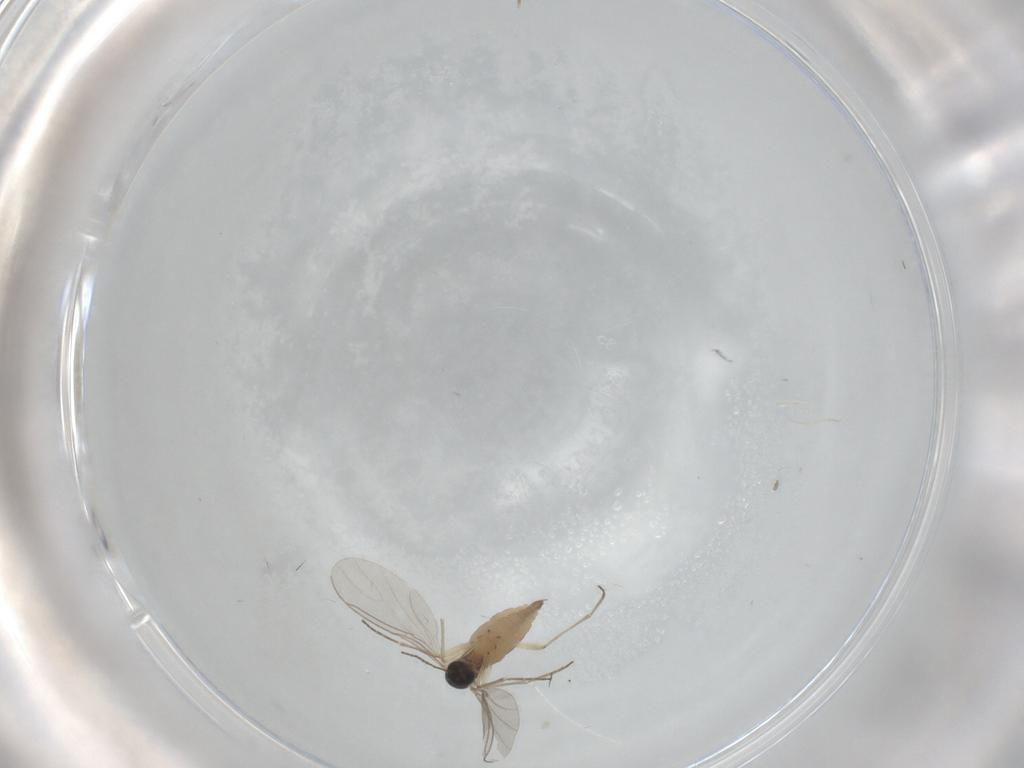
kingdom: Animalia
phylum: Arthropoda
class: Insecta
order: Diptera
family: Sciaridae
